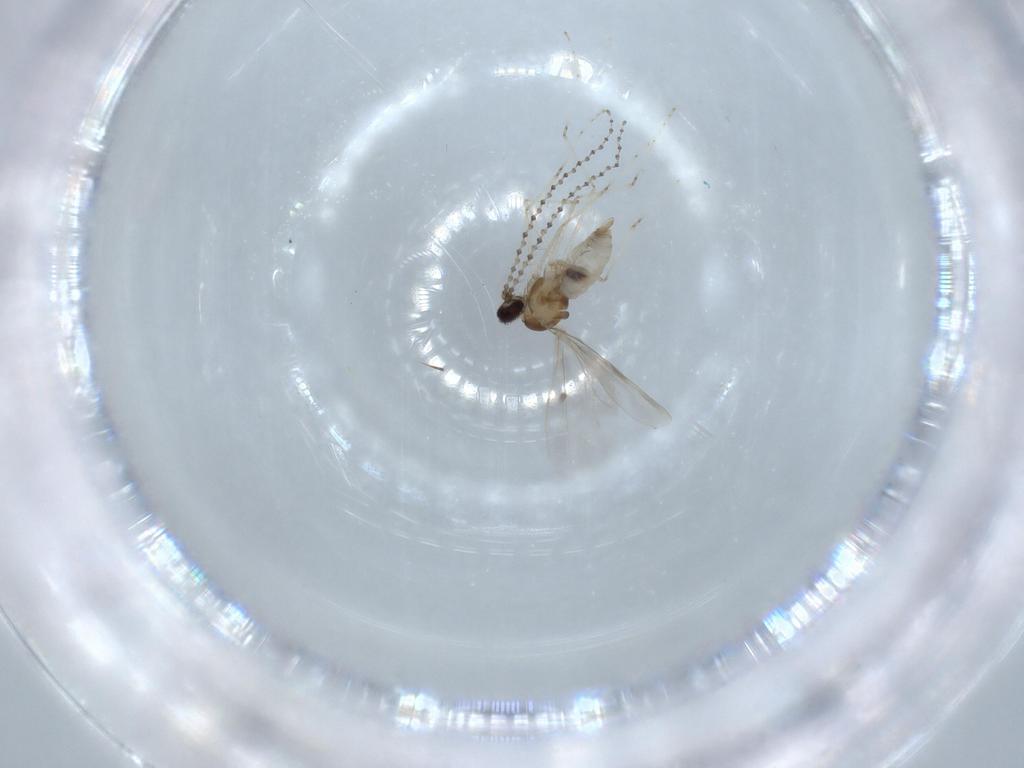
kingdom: Animalia
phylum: Arthropoda
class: Insecta
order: Diptera
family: Cecidomyiidae
